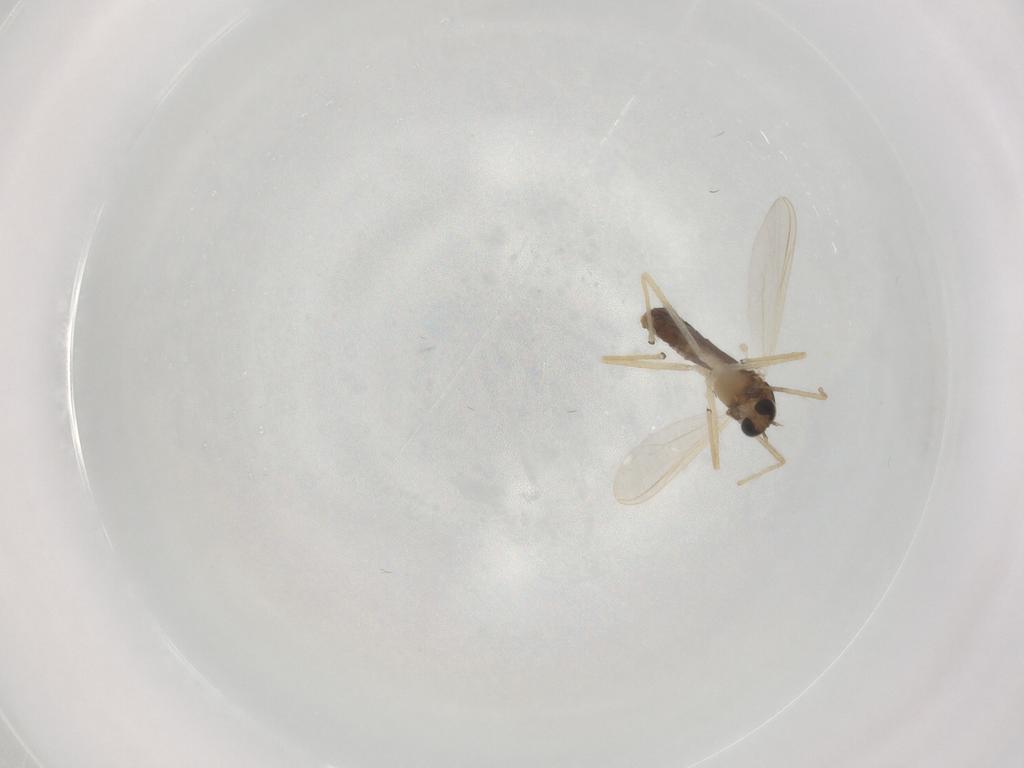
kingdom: Animalia
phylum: Arthropoda
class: Insecta
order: Diptera
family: Chironomidae
